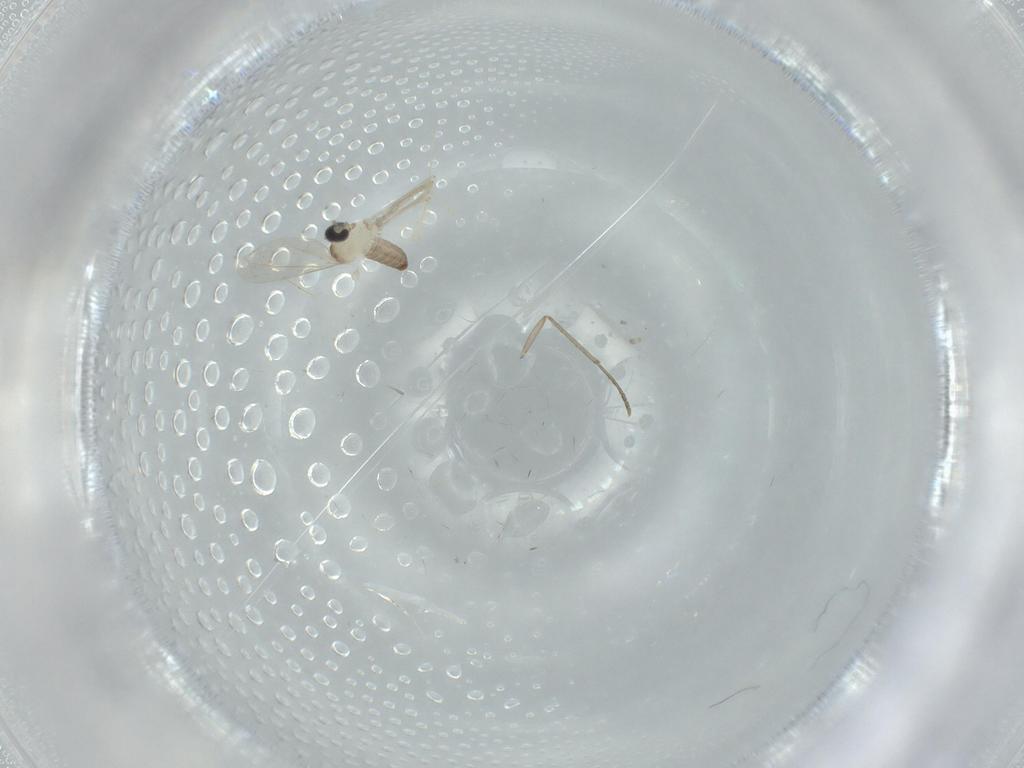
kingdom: Animalia
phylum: Arthropoda
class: Insecta
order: Diptera
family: Cecidomyiidae
